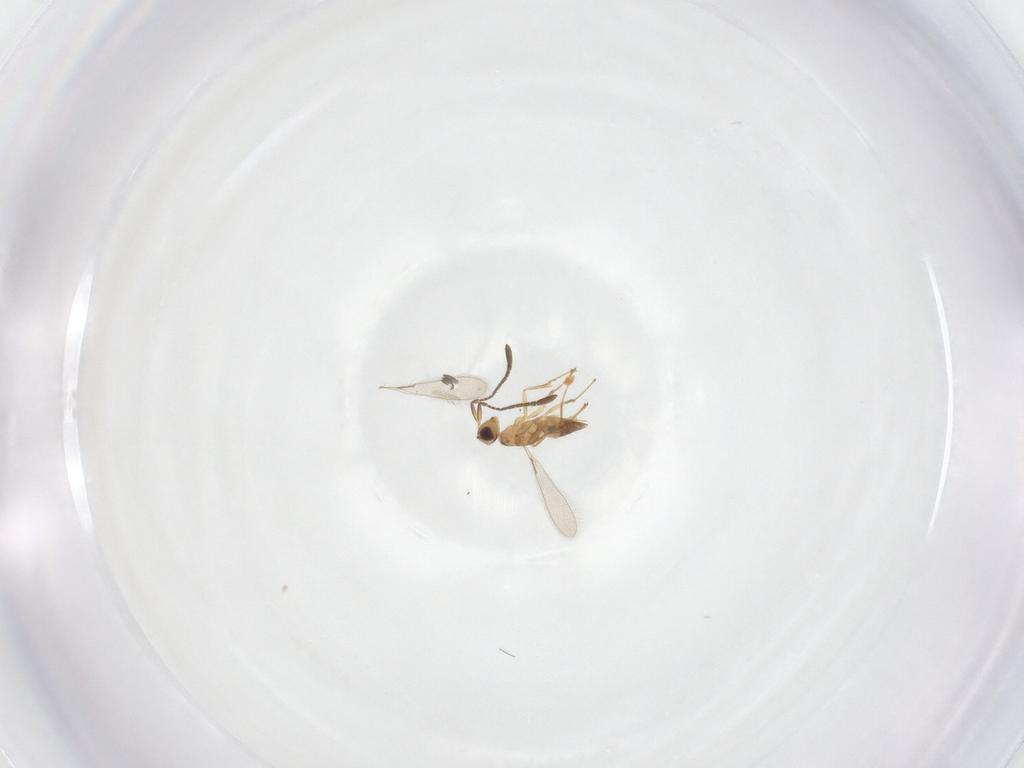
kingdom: Animalia
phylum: Arthropoda
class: Insecta
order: Hymenoptera
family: Mymaridae
